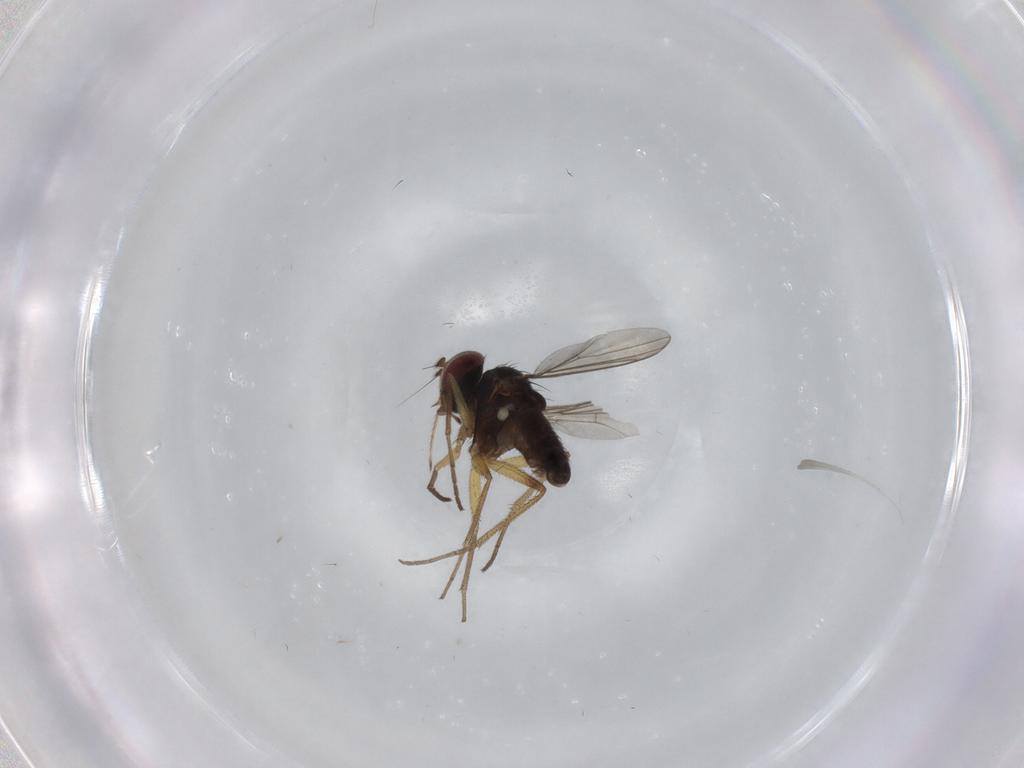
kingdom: Animalia
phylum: Arthropoda
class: Insecta
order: Diptera
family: Dolichopodidae
